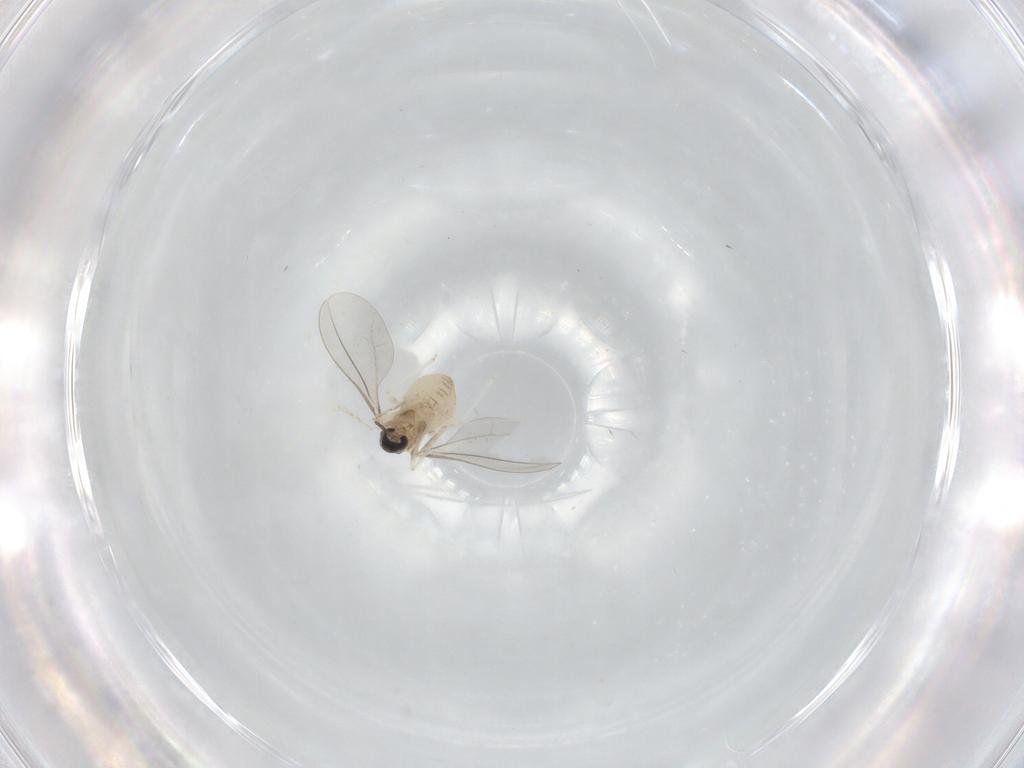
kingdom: Animalia
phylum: Arthropoda
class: Insecta
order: Diptera
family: Cecidomyiidae
